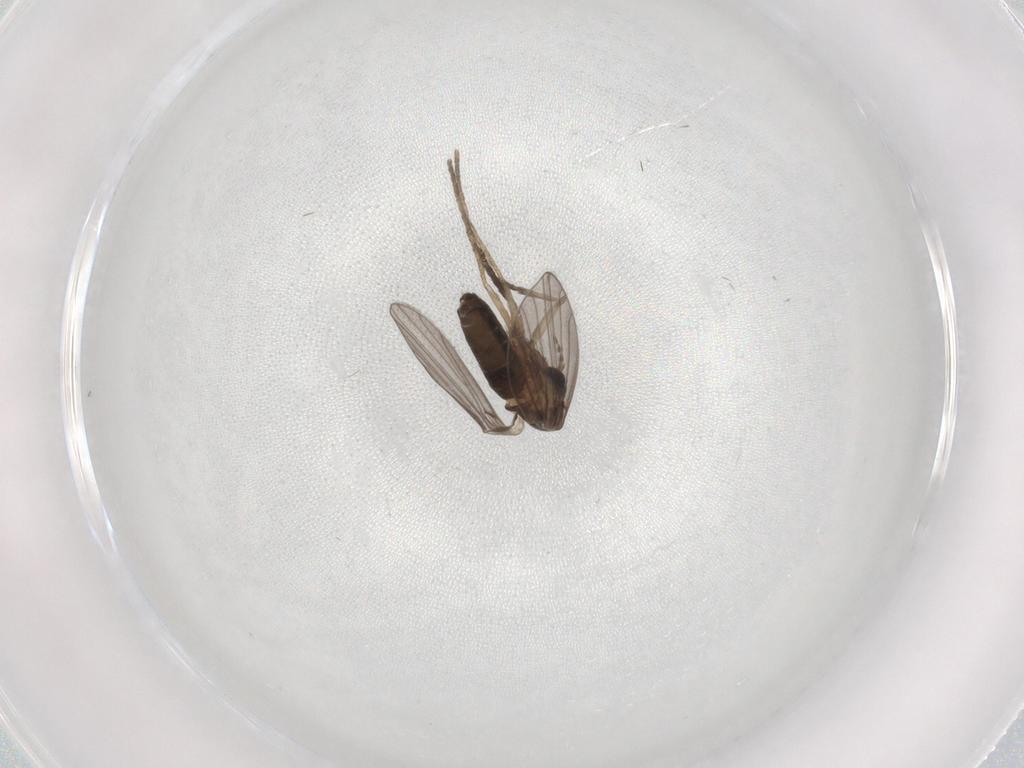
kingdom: Animalia
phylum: Arthropoda
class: Insecta
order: Diptera
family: Psychodidae
